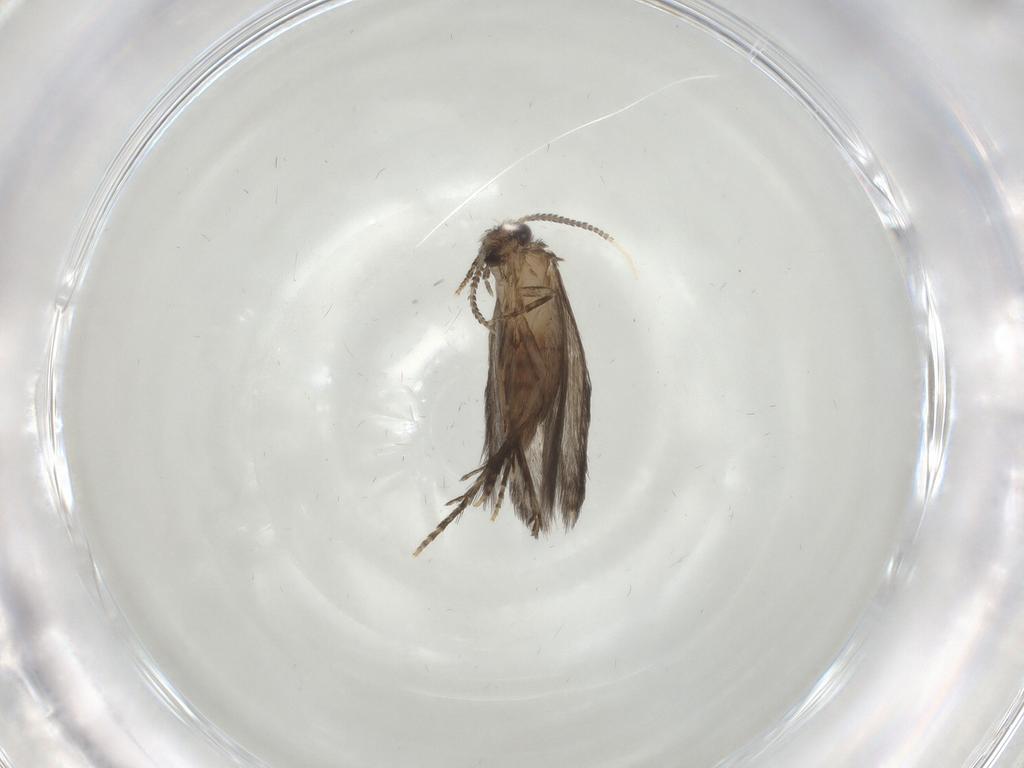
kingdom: Animalia
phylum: Arthropoda
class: Insecta
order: Trichoptera
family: Hydroptilidae
